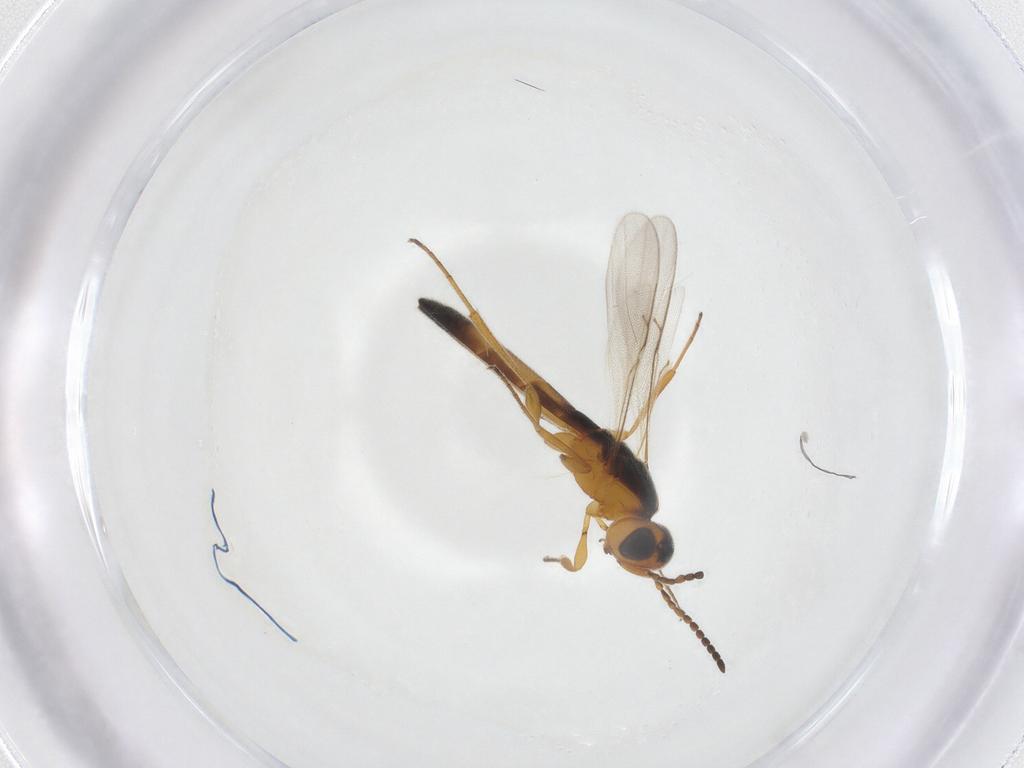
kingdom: Animalia
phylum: Arthropoda
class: Insecta
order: Hymenoptera
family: Scelionidae
